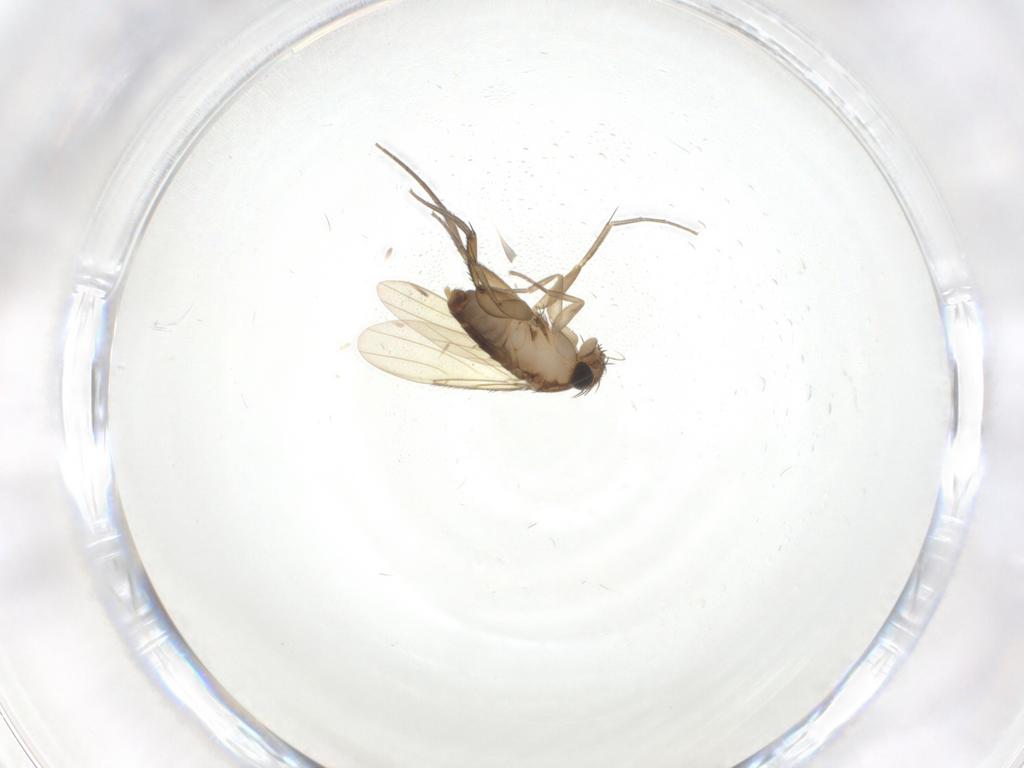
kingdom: Animalia
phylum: Arthropoda
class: Insecta
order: Diptera
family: Phoridae
